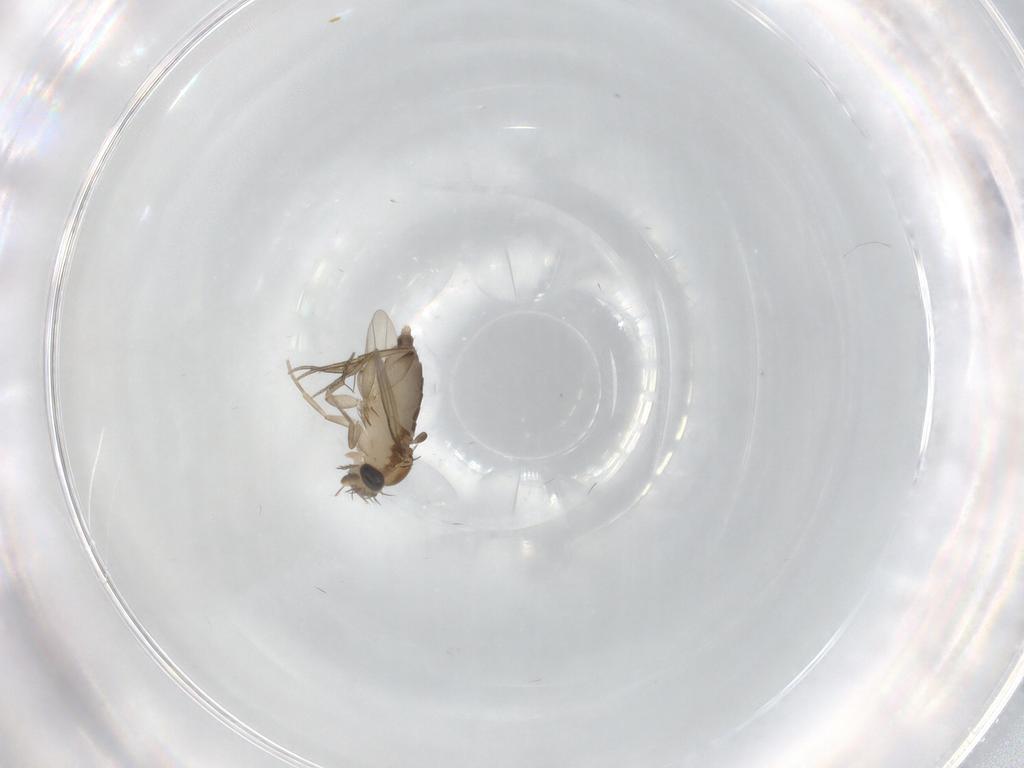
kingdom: Animalia
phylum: Arthropoda
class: Insecta
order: Diptera
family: Phoridae
